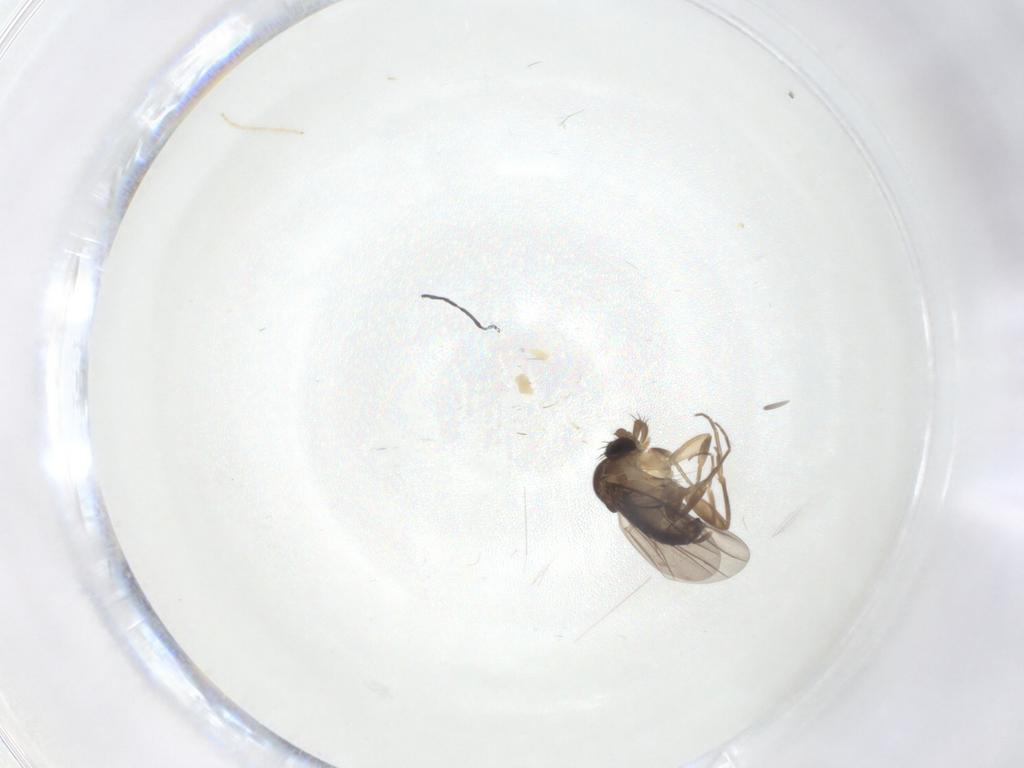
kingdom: Animalia
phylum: Arthropoda
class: Insecta
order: Diptera
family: Phoridae
